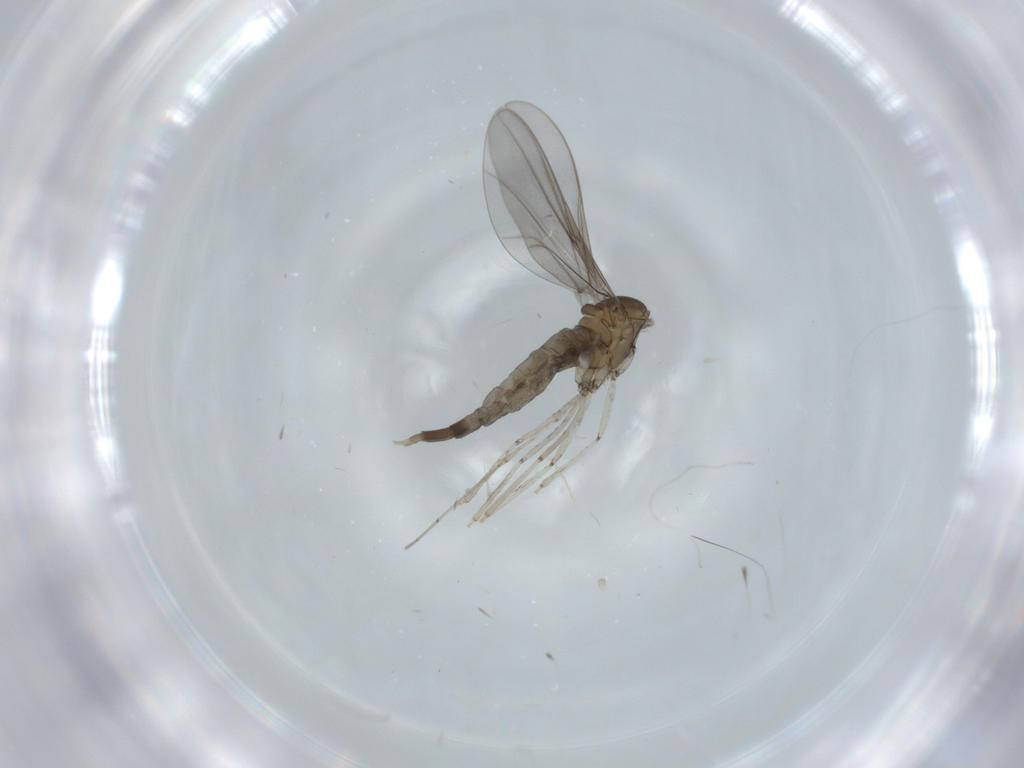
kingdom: Animalia
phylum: Arthropoda
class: Insecta
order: Diptera
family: Cecidomyiidae
